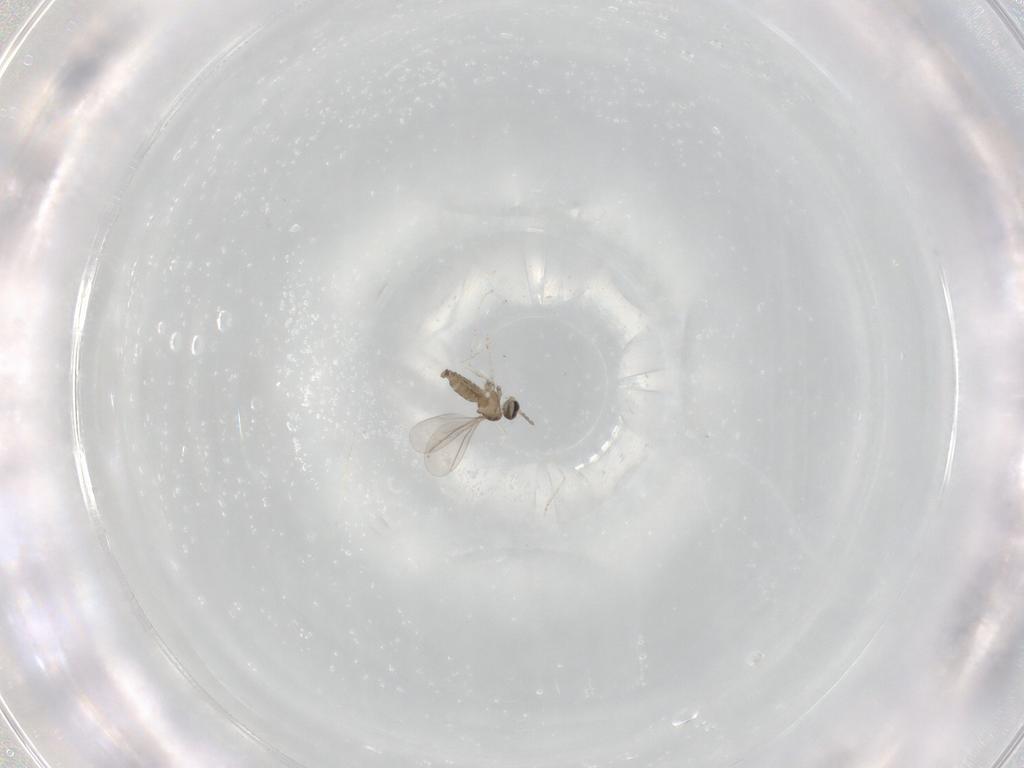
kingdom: Animalia
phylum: Arthropoda
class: Insecta
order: Diptera
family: Cecidomyiidae
